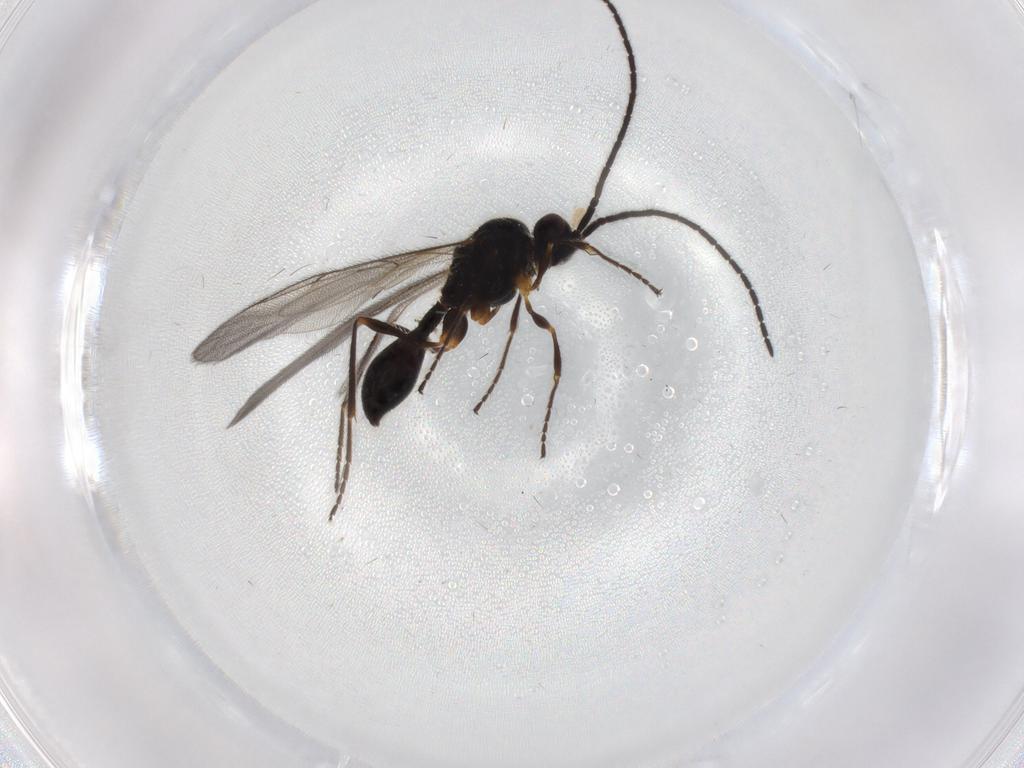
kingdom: Animalia
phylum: Arthropoda
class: Insecta
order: Hymenoptera
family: Diapriidae
